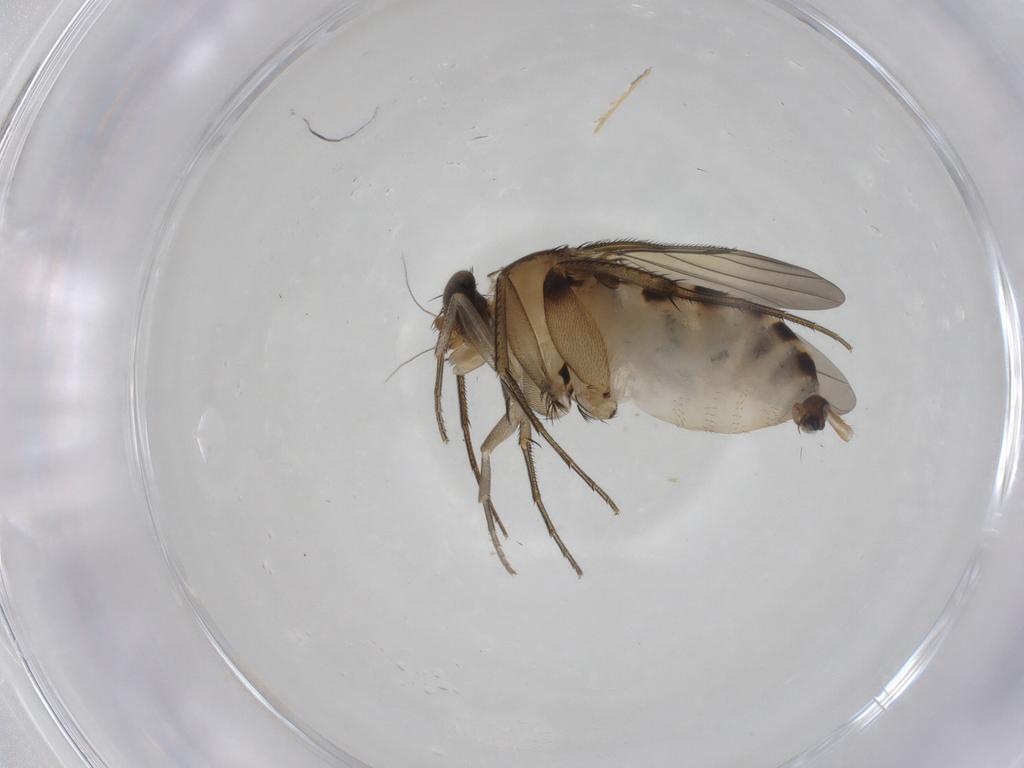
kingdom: Animalia
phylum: Arthropoda
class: Insecta
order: Diptera
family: Phoridae
